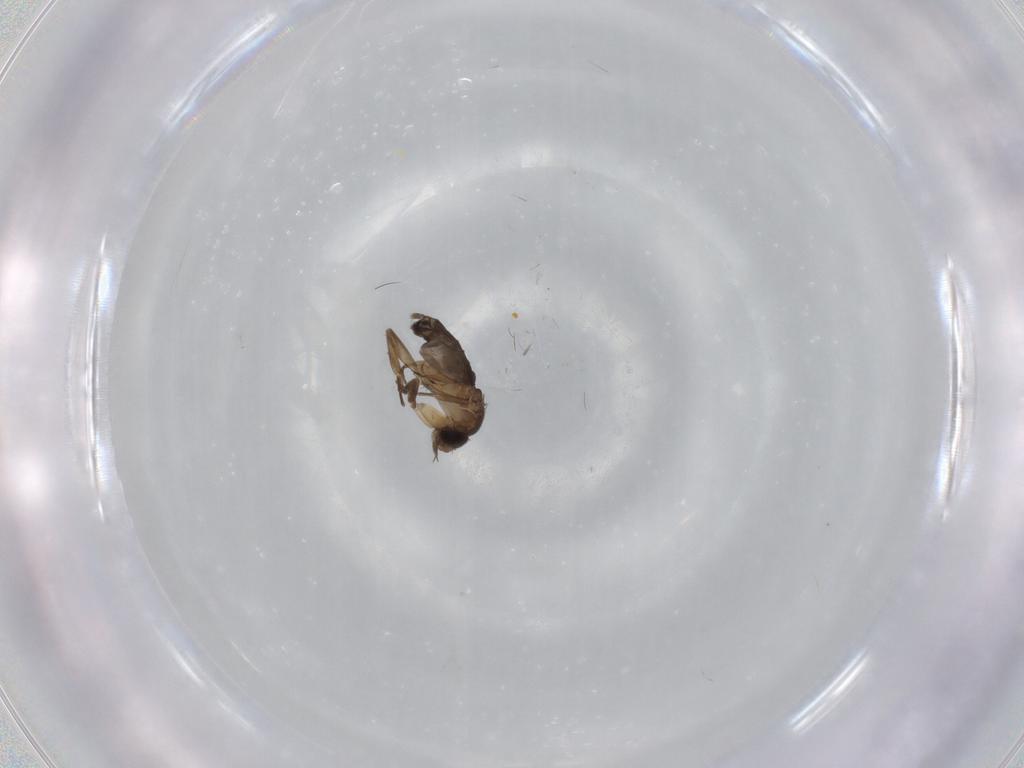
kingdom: Animalia
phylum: Arthropoda
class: Insecta
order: Diptera
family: Phoridae
